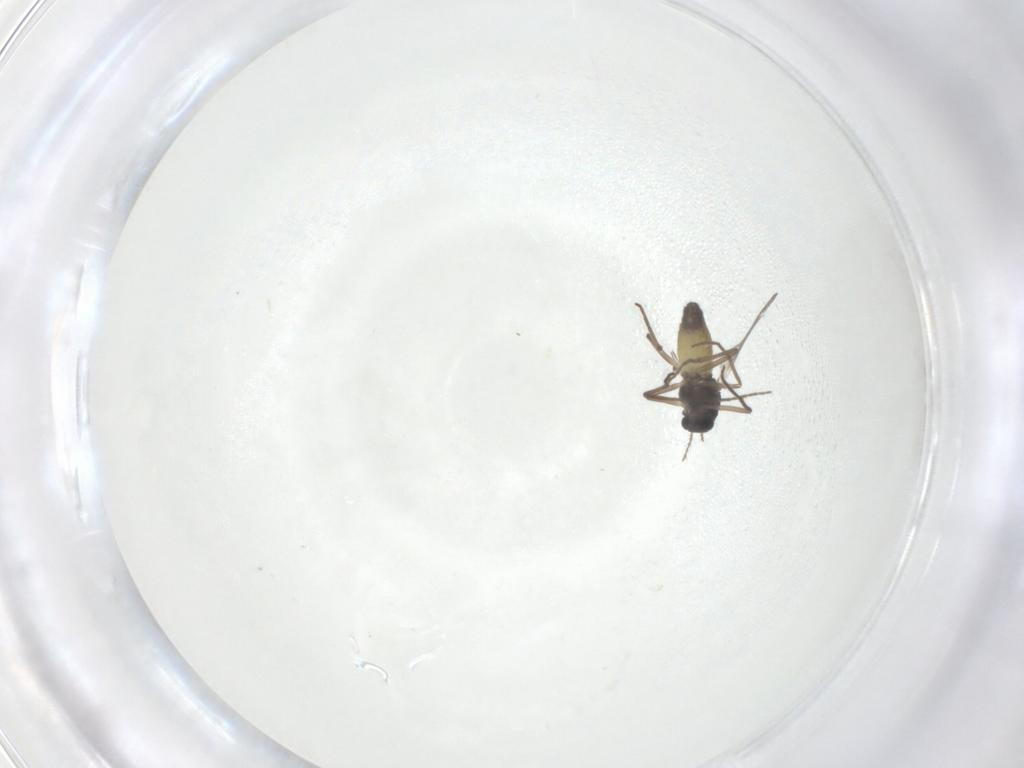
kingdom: Animalia
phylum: Arthropoda
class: Insecta
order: Diptera
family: Chironomidae
